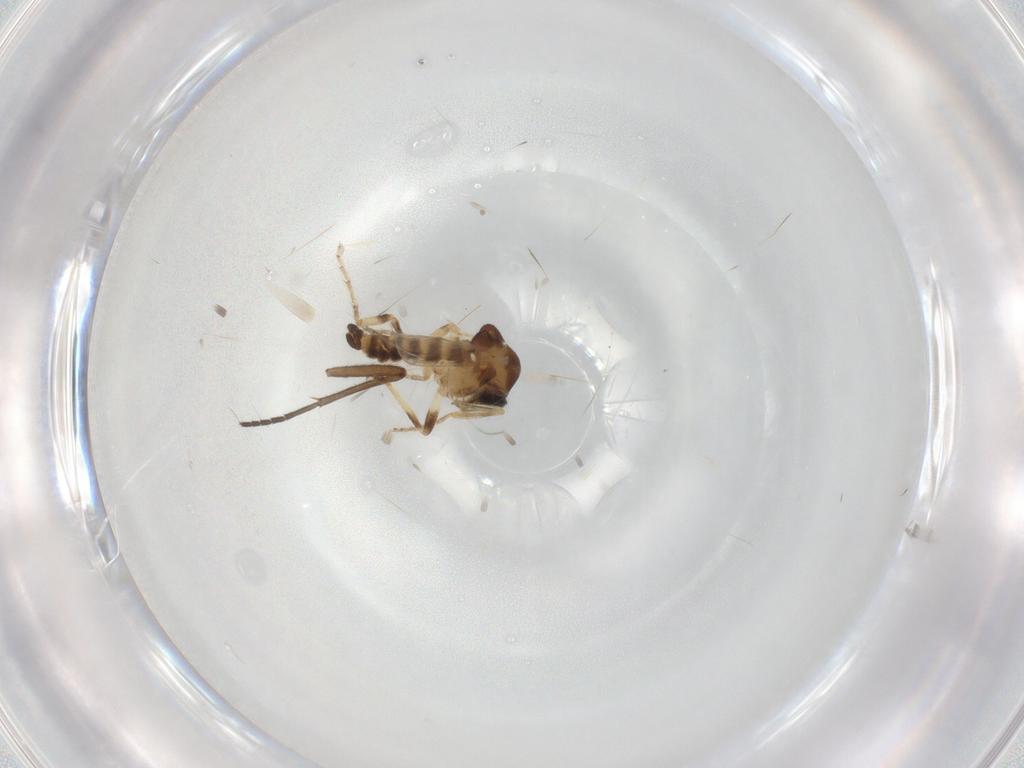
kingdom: Animalia
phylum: Arthropoda
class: Insecta
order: Diptera
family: Ceratopogonidae
